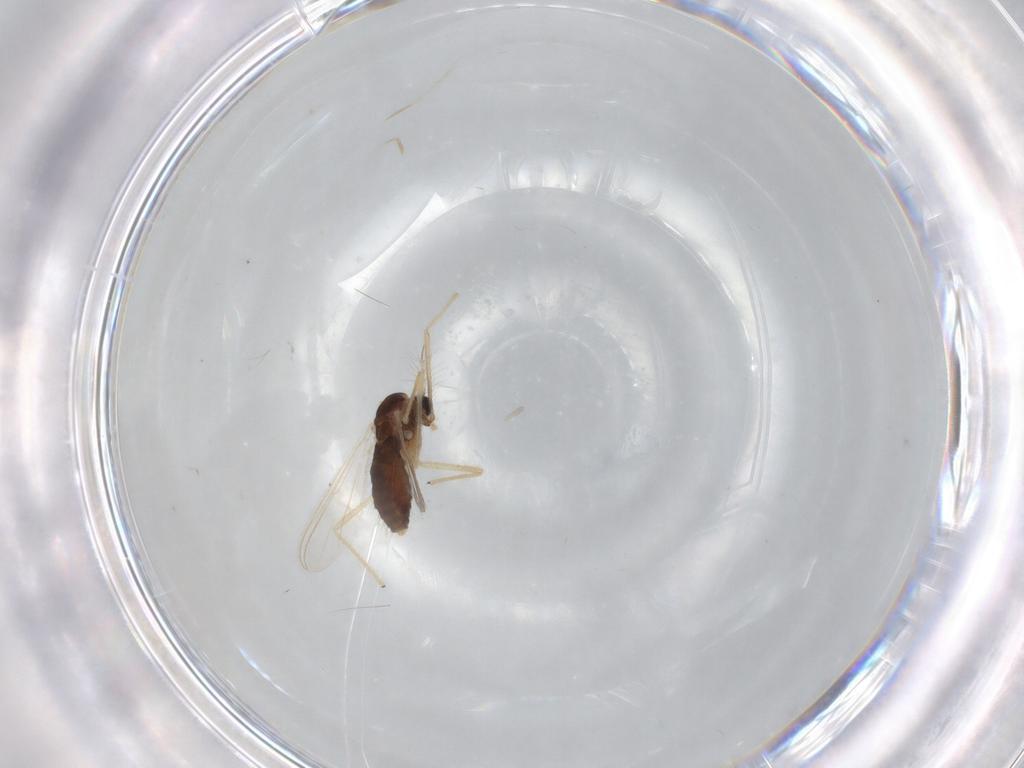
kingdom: Animalia
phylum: Arthropoda
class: Insecta
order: Diptera
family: Chironomidae
